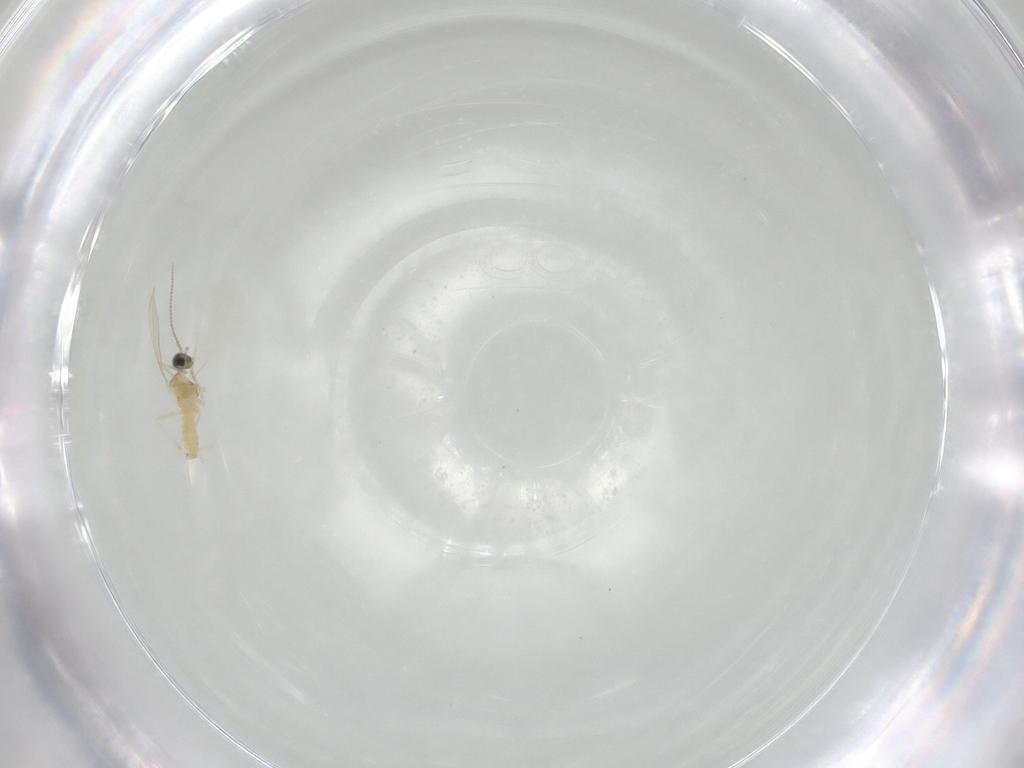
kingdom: Animalia
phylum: Arthropoda
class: Insecta
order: Diptera
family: Cecidomyiidae
